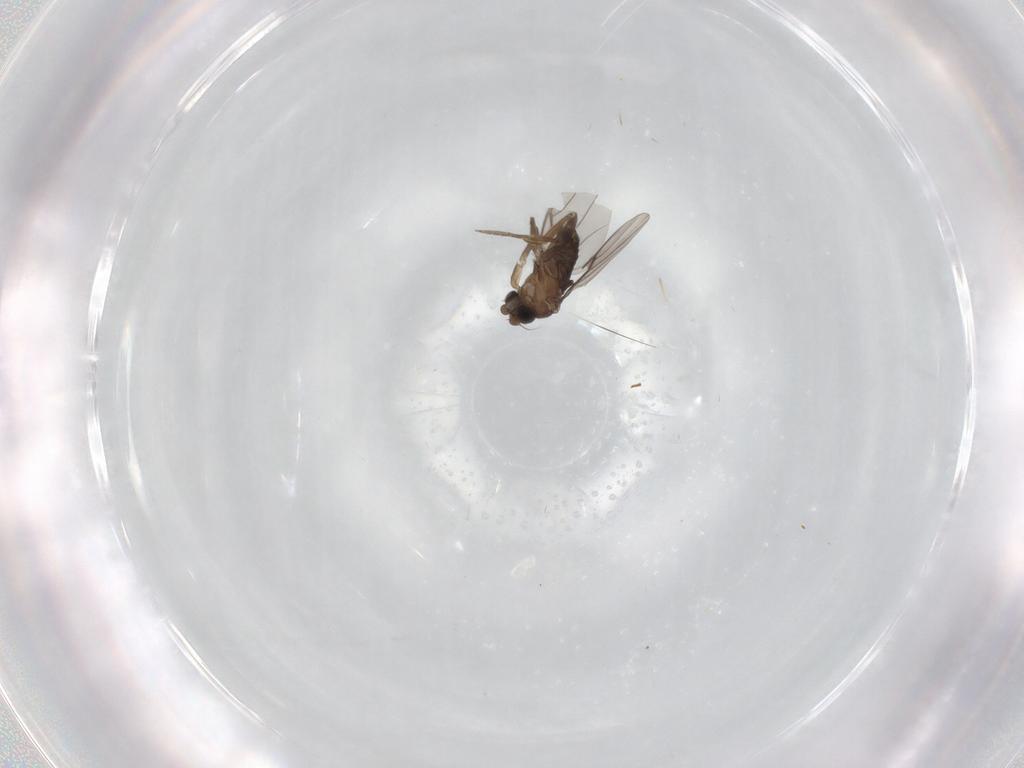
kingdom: Animalia
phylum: Arthropoda
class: Insecta
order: Diptera
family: Phoridae
